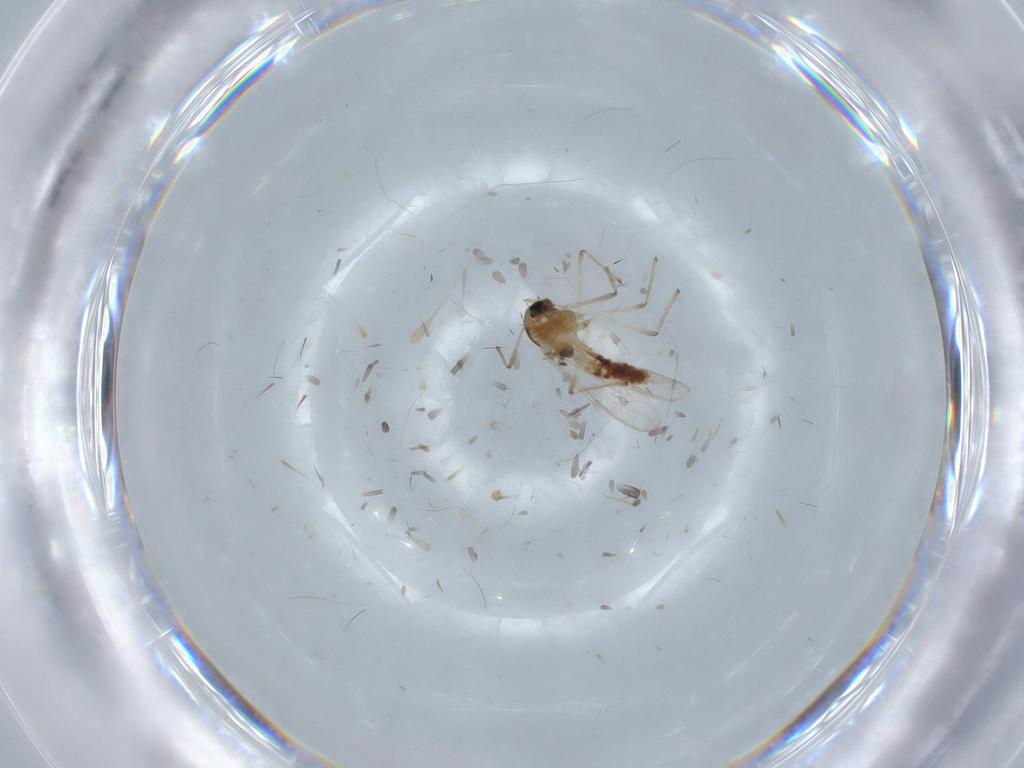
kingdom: Animalia
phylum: Arthropoda
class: Insecta
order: Diptera
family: Chironomidae
